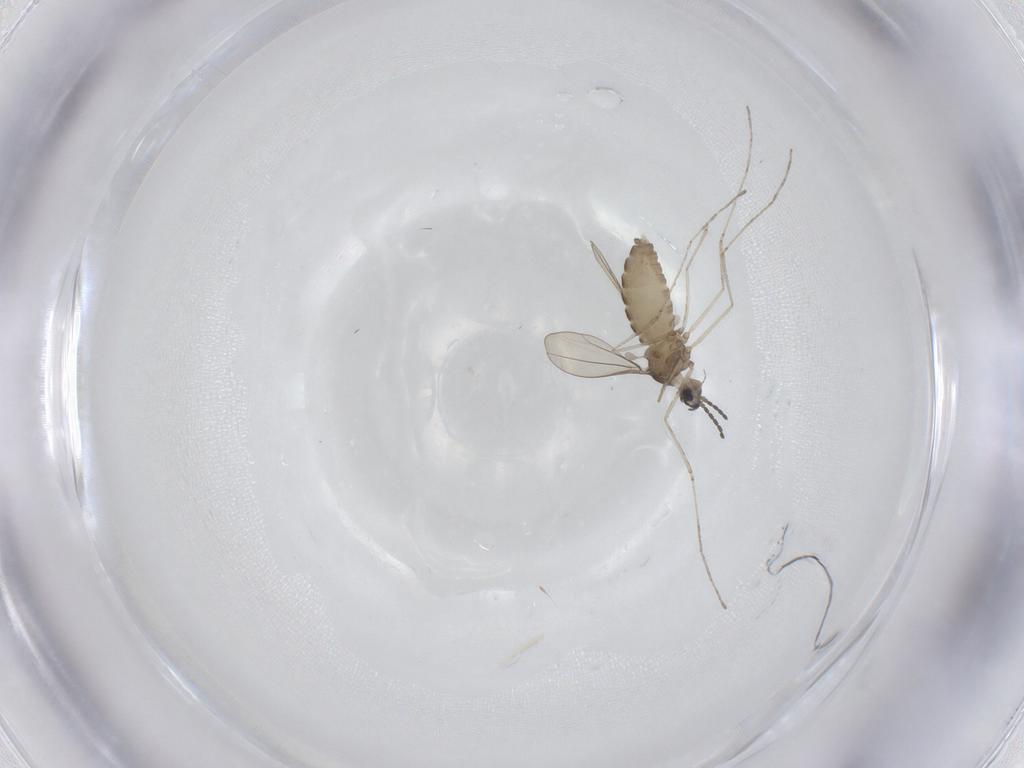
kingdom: Animalia
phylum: Arthropoda
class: Insecta
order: Diptera
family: Cecidomyiidae
